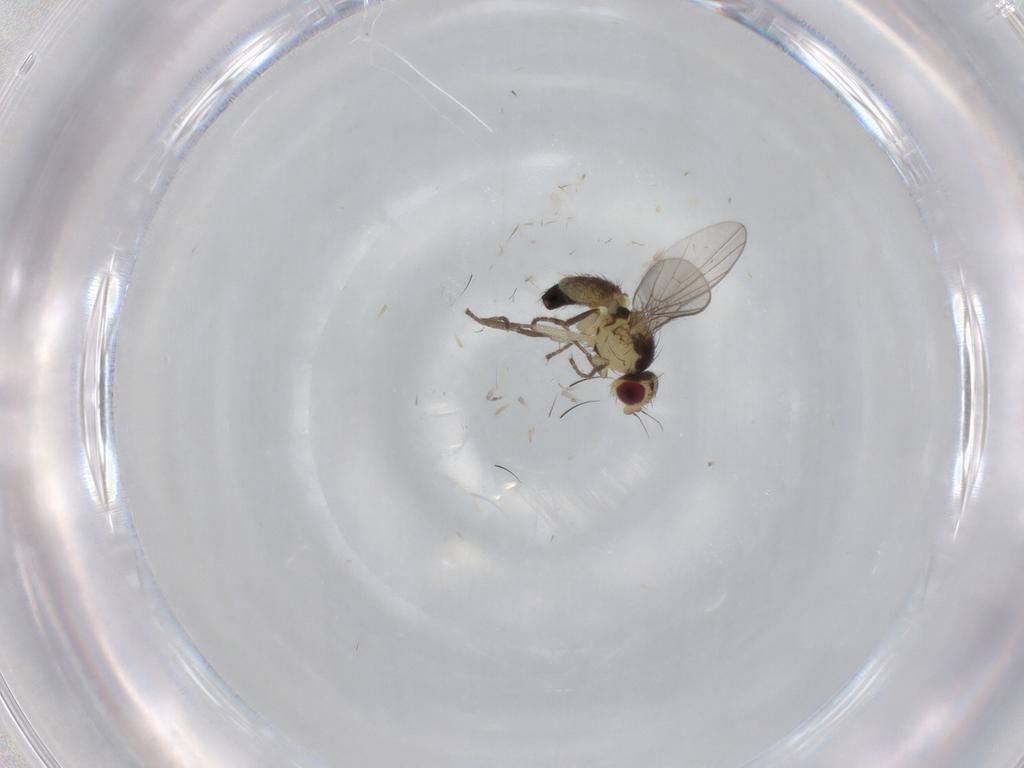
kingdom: Animalia
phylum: Arthropoda
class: Insecta
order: Diptera
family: Agromyzidae
